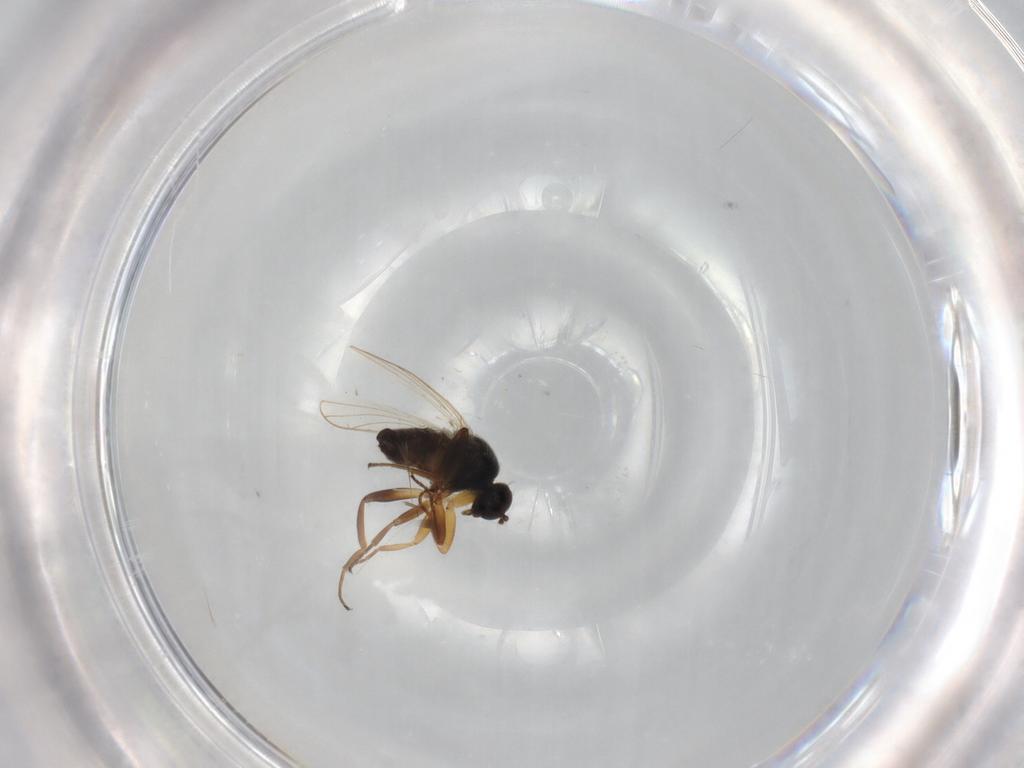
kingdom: Animalia
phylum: Arthropoda
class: Insecta
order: Diptera
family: Hybotidae
